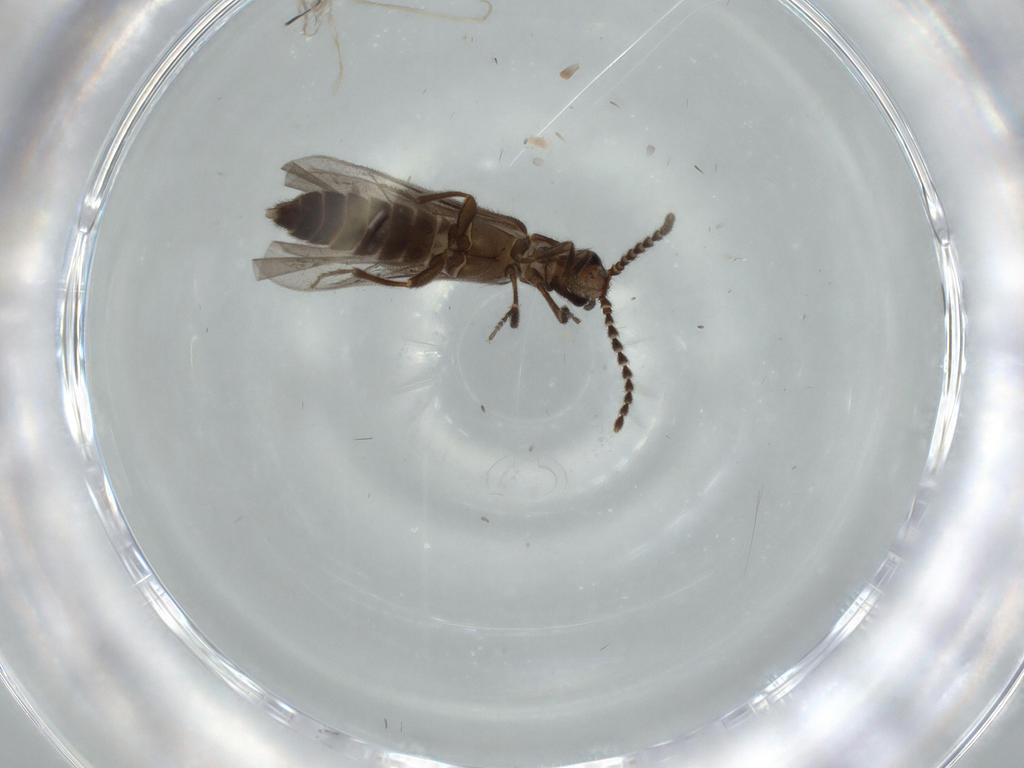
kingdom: Animalia
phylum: Arthropoda
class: Insecta
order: Coleoptera
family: Omethidae
